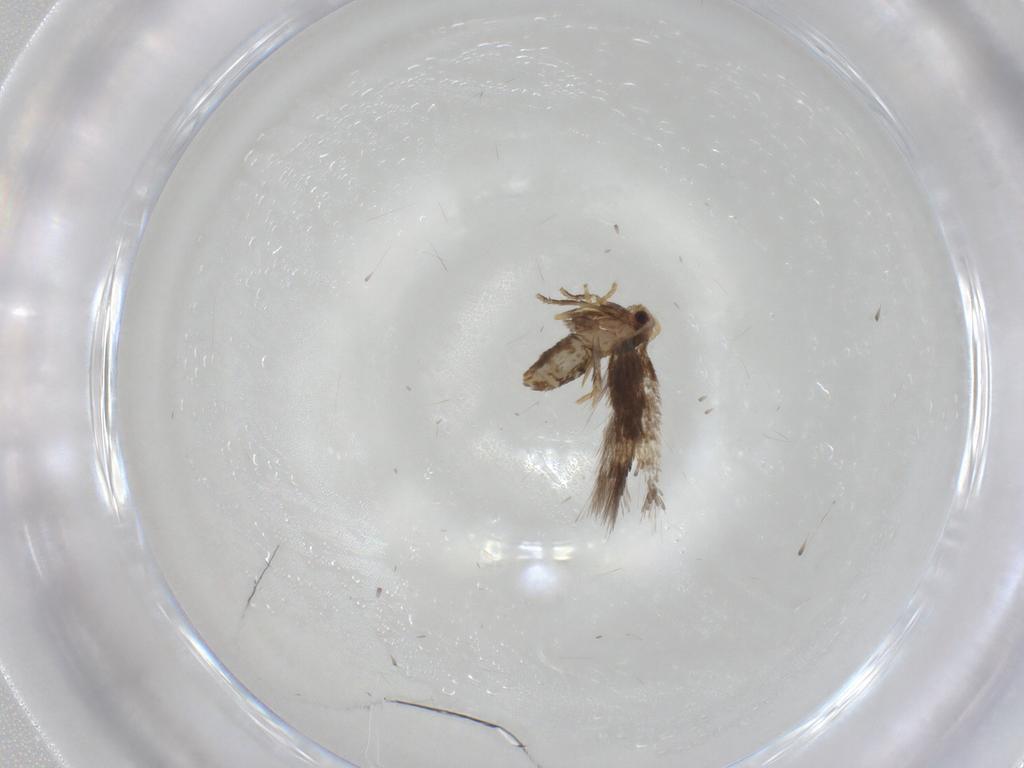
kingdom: Animalia
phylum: Arthropoda
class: Insecta
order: Lepidoptera
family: Nepticulidae
